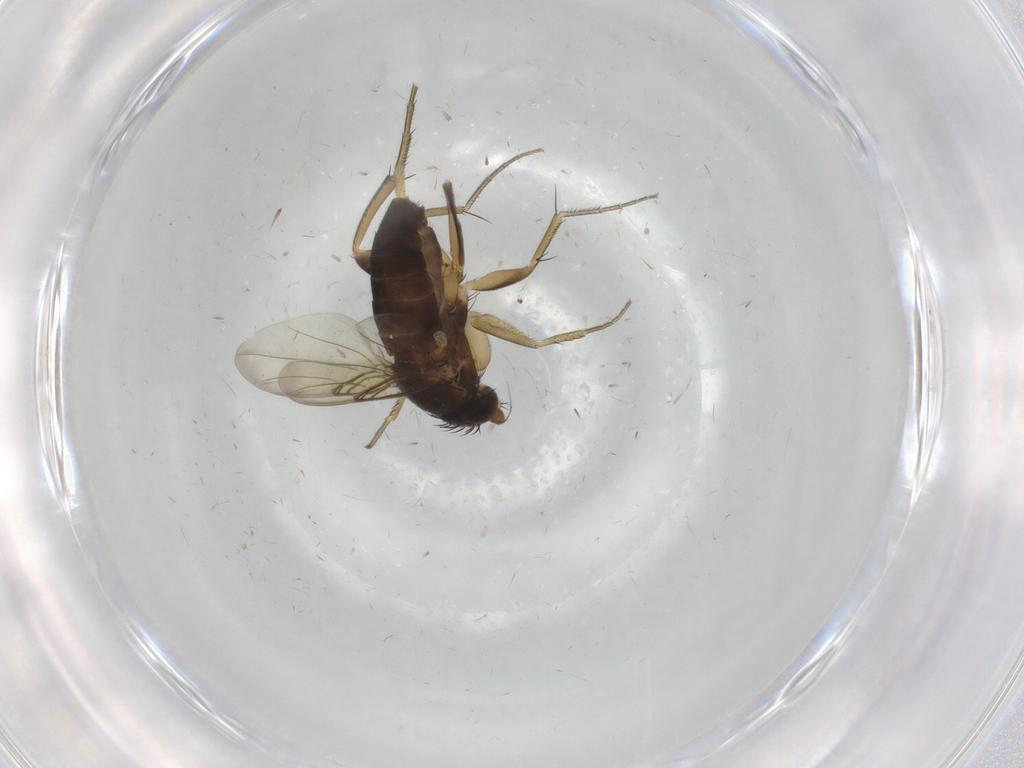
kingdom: Animalia
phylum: Arthropoda
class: Insecta
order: Diptera
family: Phoridae
